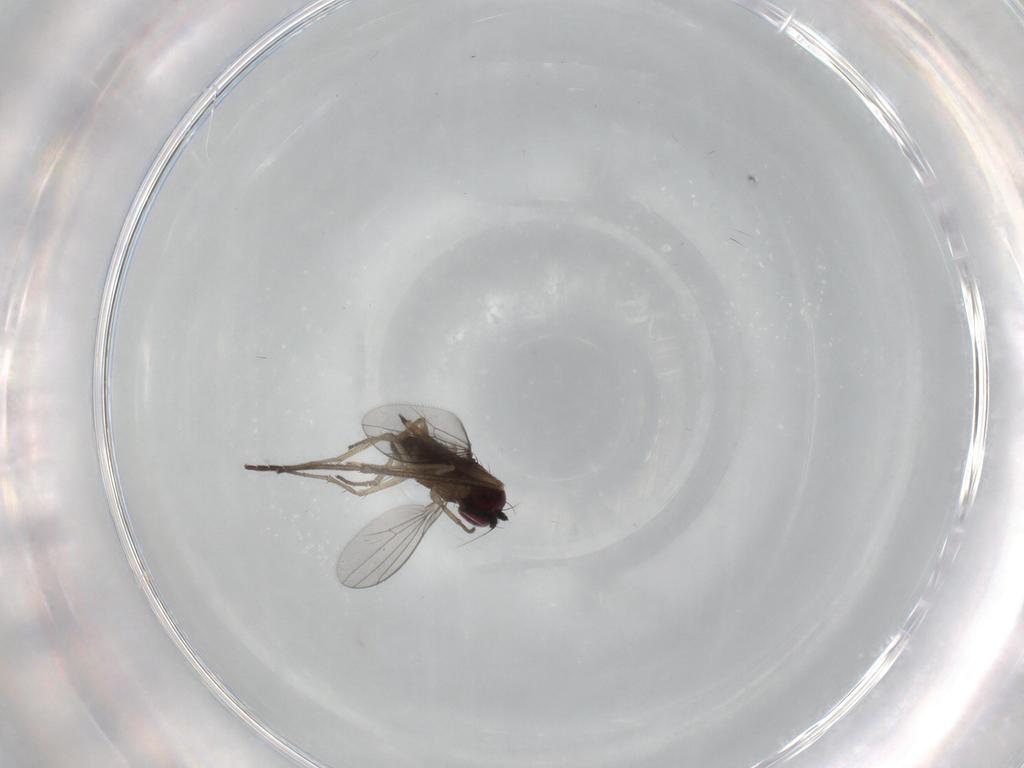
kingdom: Animalia
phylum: Arthropoda
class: Insecta
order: Diptera
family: Dolichopodidae
